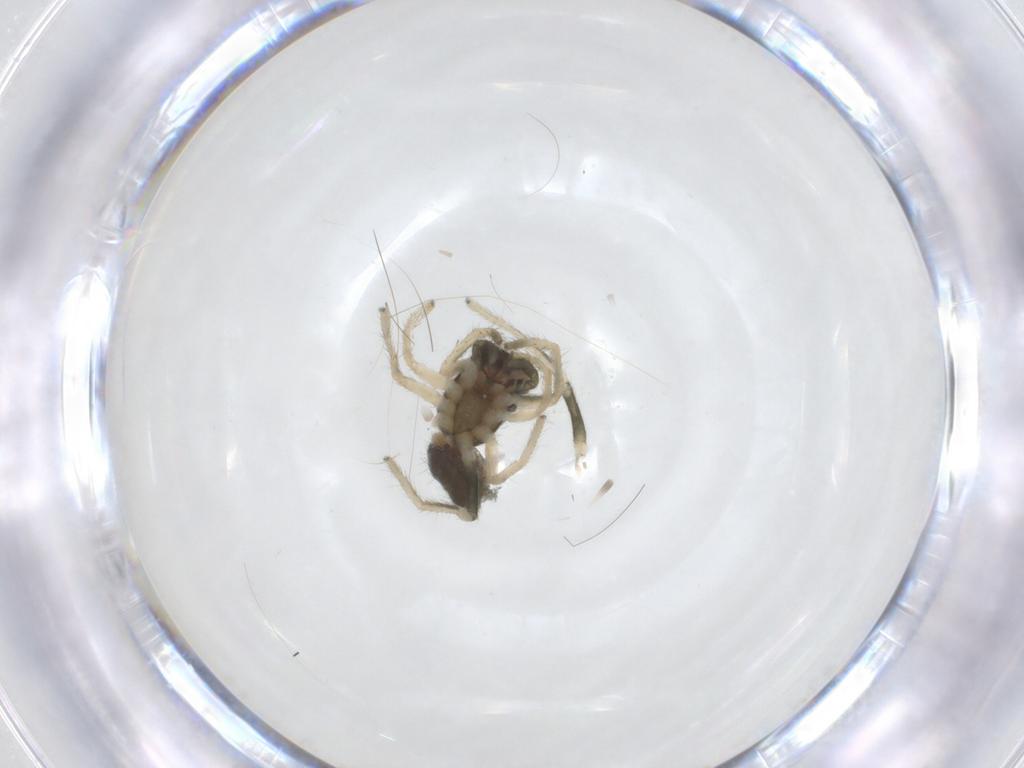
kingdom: Animalia
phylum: Arthropoda
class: Arachnida
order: Araneae
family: Salticidae
